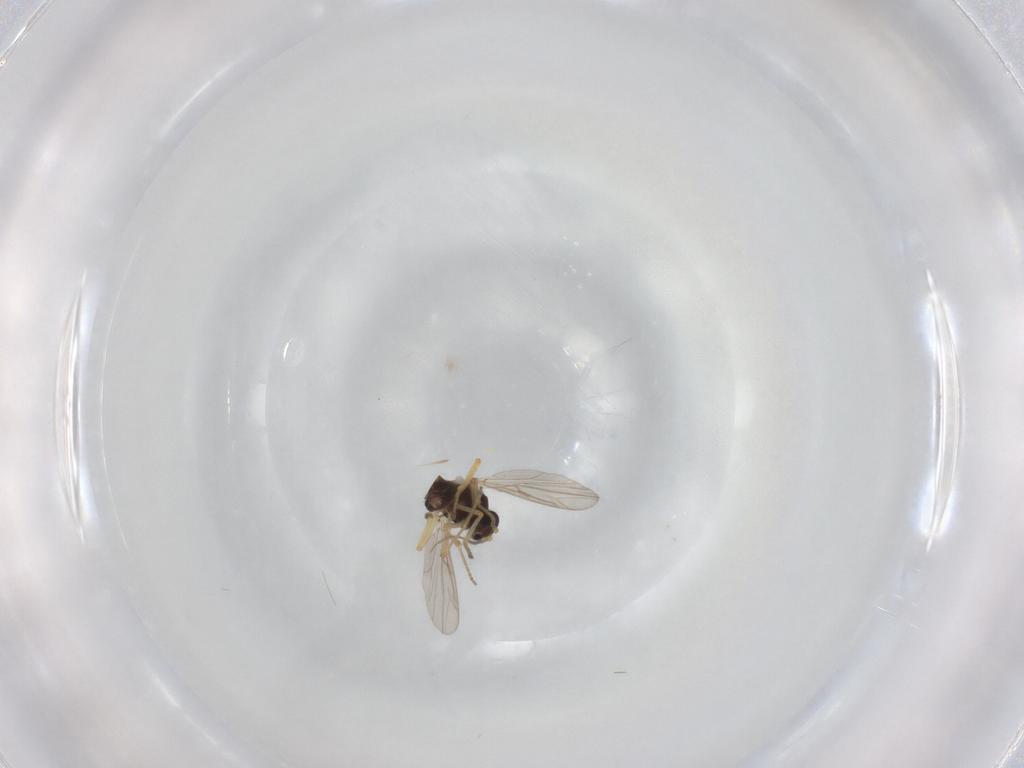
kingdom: Animalia
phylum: Arthropoda
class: Insecta
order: Diptera
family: Ceratopogonidae
